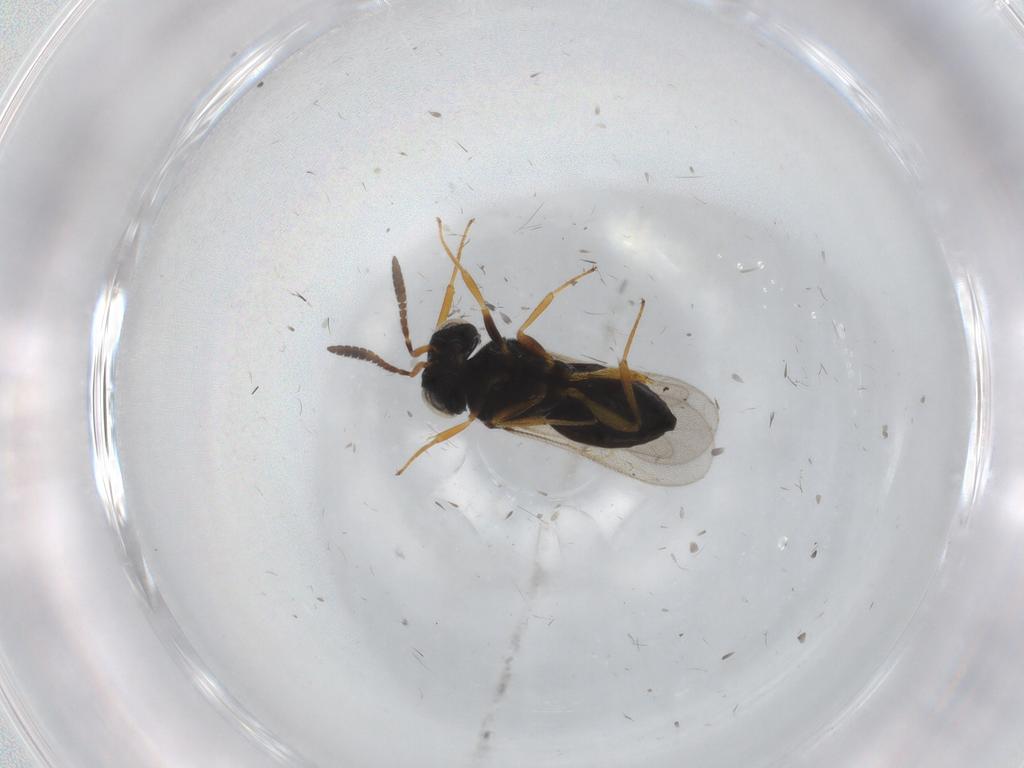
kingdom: Animalia
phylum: Arthropoda
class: Insecta
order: Hymenoptera
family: Scelionidae
